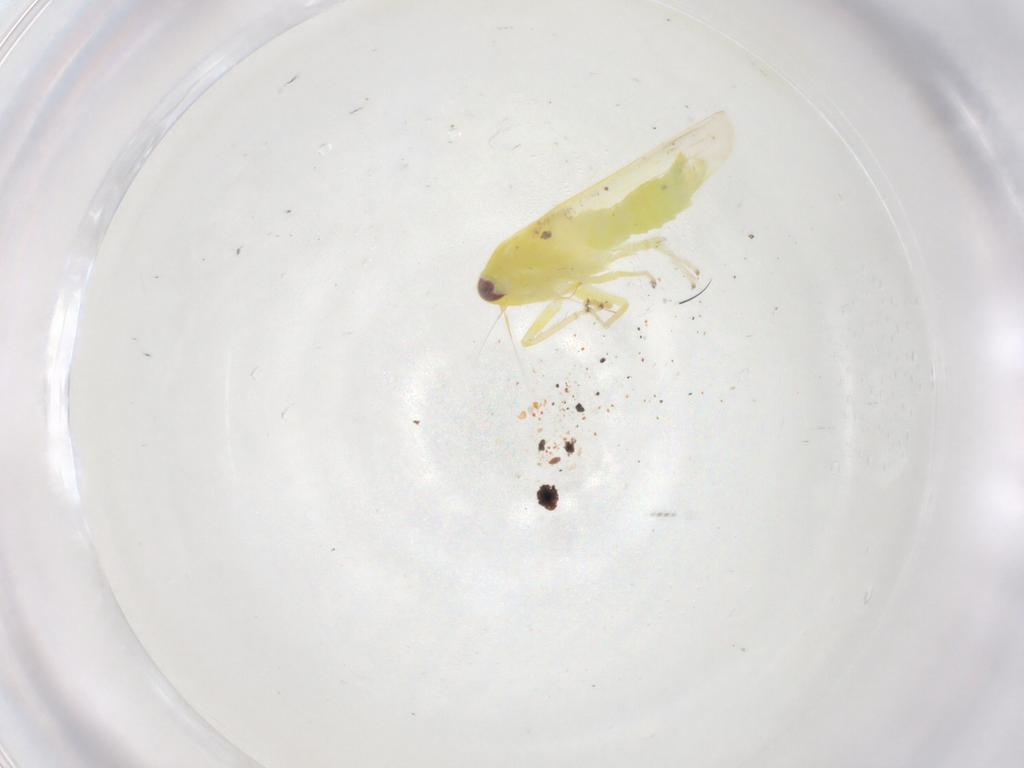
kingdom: Animalia
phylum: Arthropoda
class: Insecta
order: Hemiptera
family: Cicadellidae
